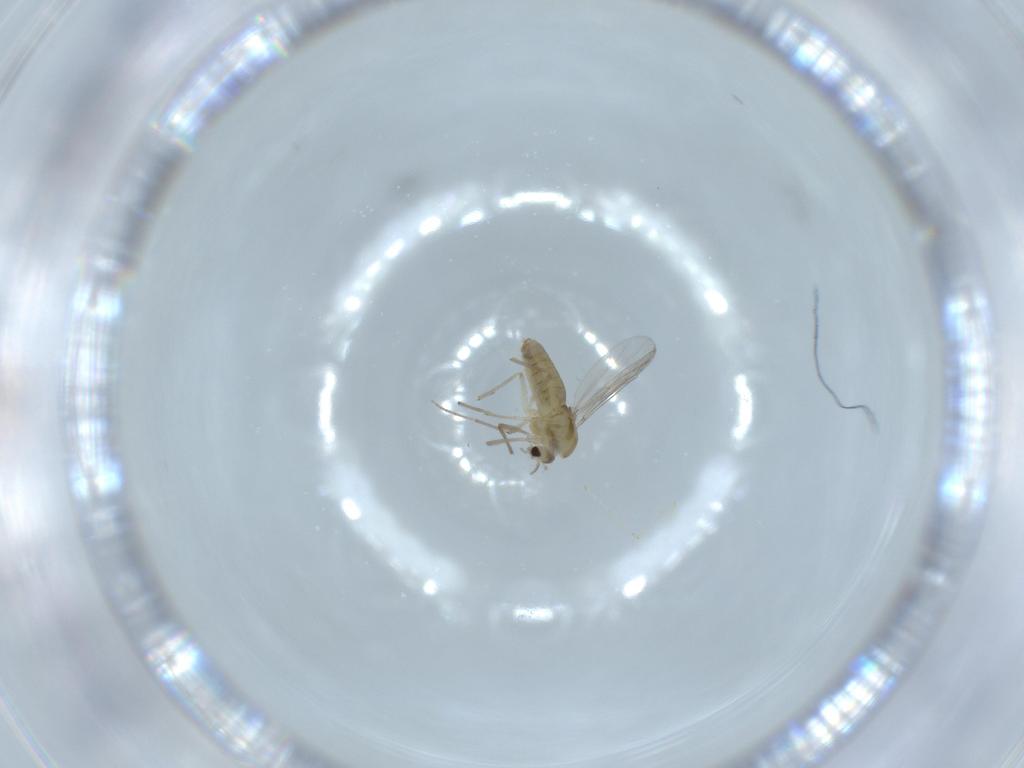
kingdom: Animalia
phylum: Arthropoda
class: Insecta
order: Diptera
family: Chironomidae
